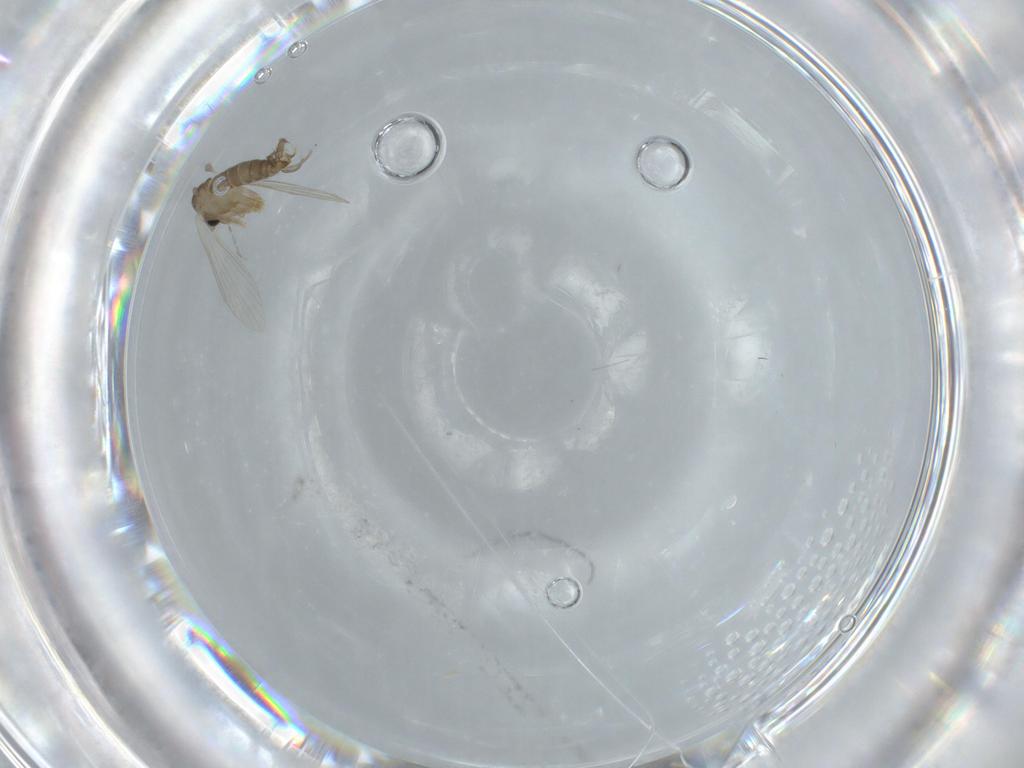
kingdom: Animalia
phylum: Arthropoda
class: Insecta
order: Diptera
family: Psychodidae
